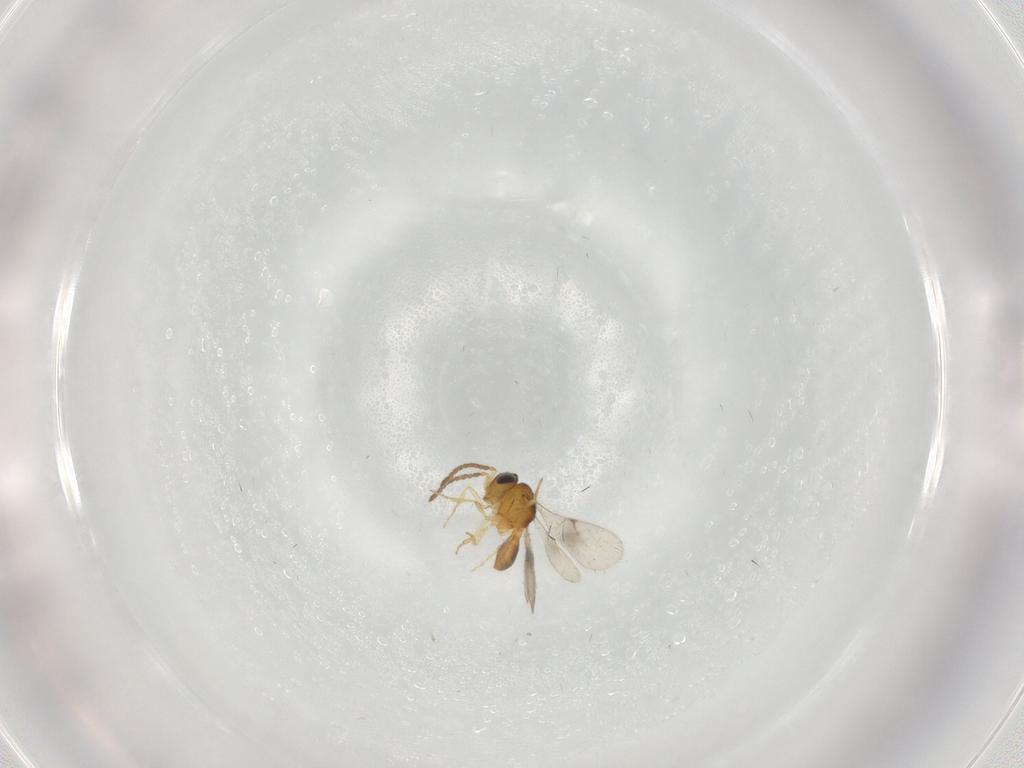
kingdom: Animalia
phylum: Arthropoda
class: Insecta
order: Hymenoptera
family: Scelionidae
